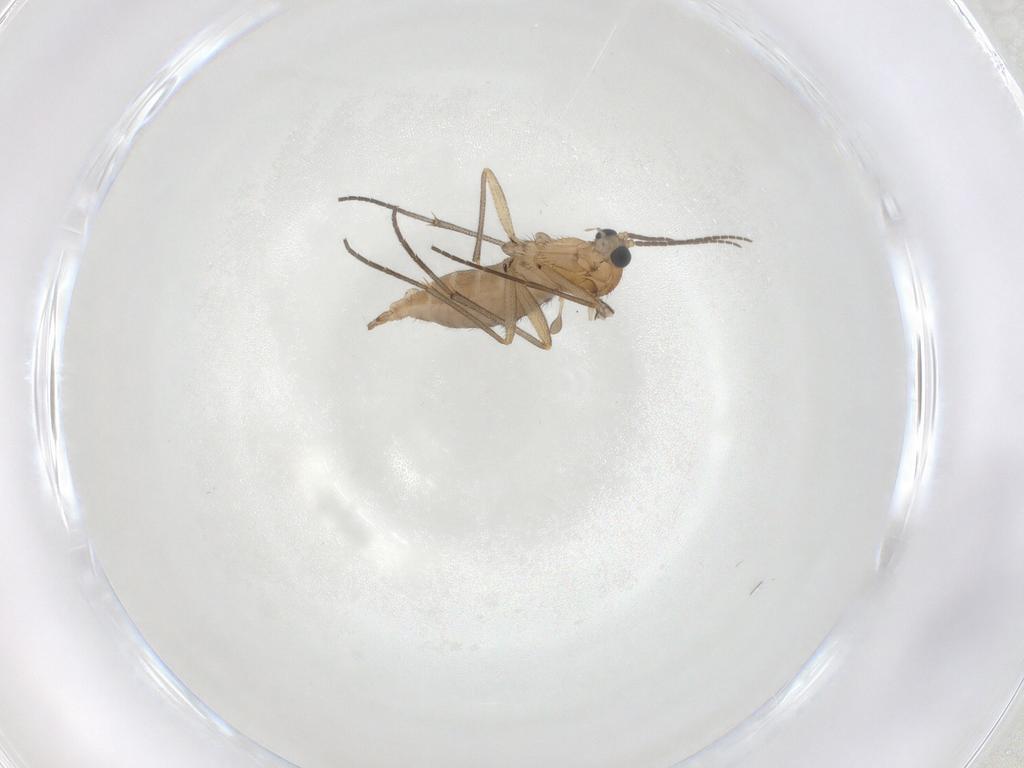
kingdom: Animalia
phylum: Arthropoda
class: Insecta
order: Diptera
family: Sciaridae
